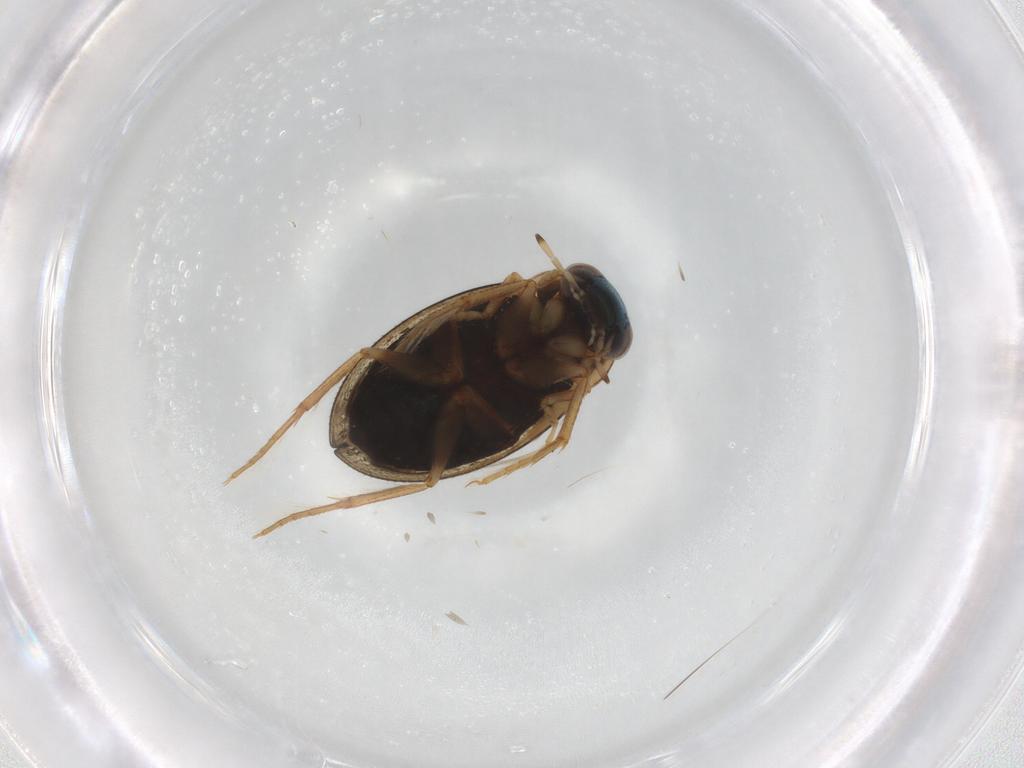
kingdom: Animalia
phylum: Arthropoda
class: Insecta
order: Coleoptera
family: Hydrophilidae
